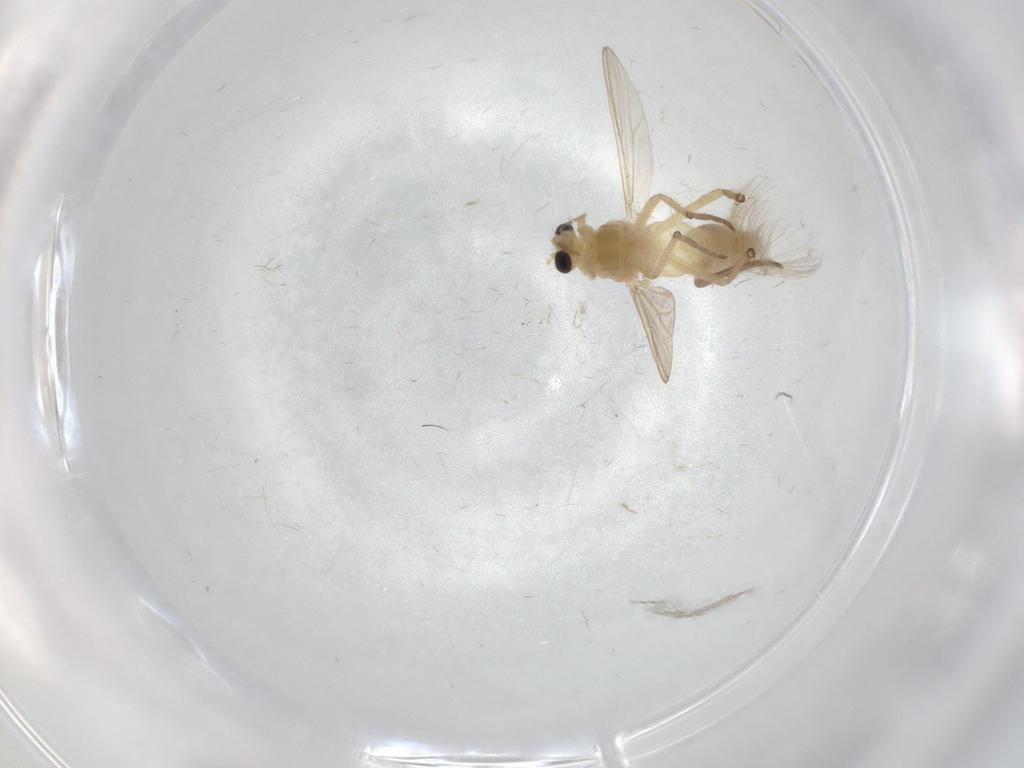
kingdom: Animalia
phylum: Arthropoda
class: Insecta
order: Diptera
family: Chironomidae
